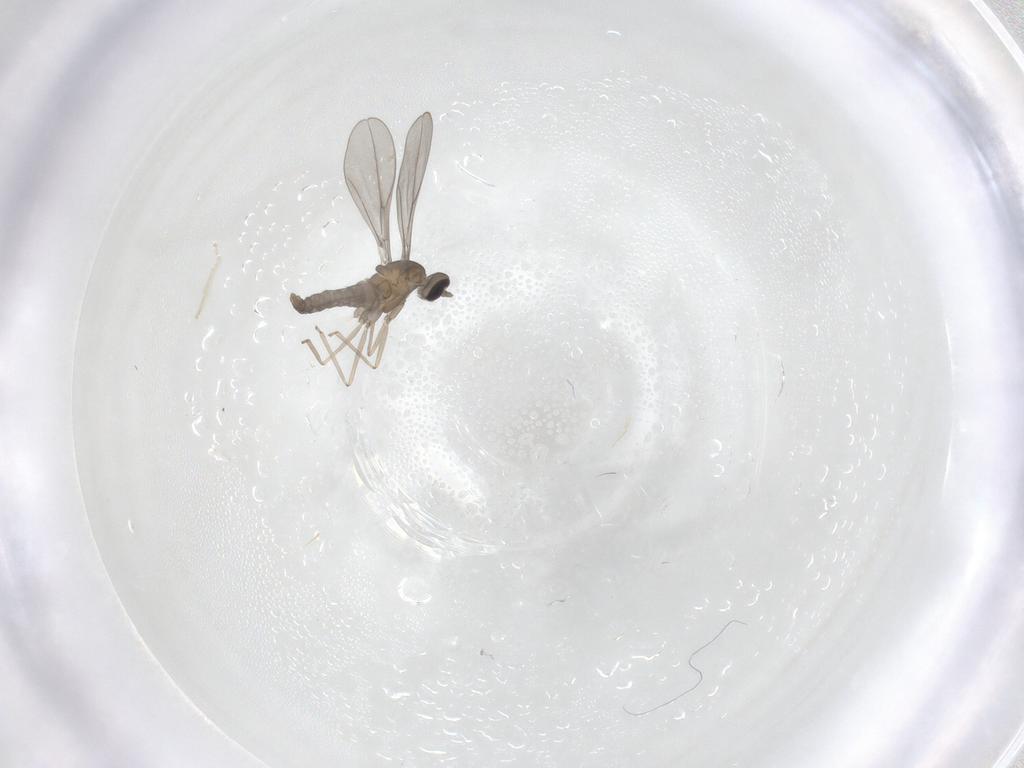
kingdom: Animalia
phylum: Arthropoda
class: Insecta
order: Diptera
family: Cecidomyiidae
